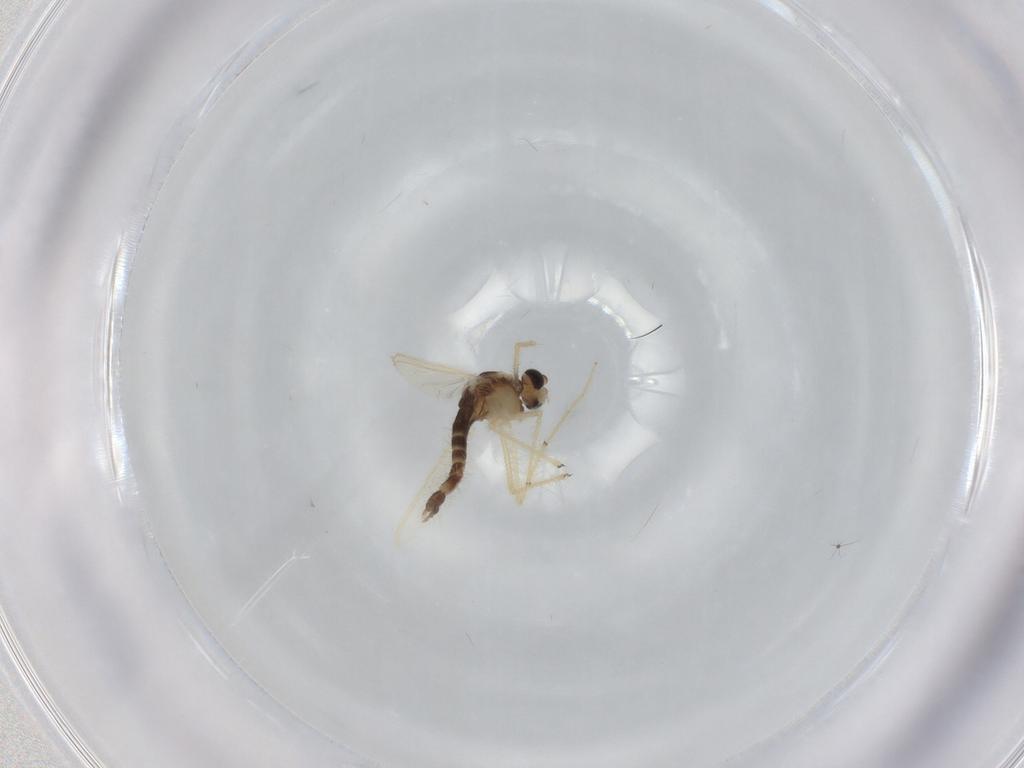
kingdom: Animalia
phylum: Arthropoda
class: Insecta
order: Diptera
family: Chironomidae
